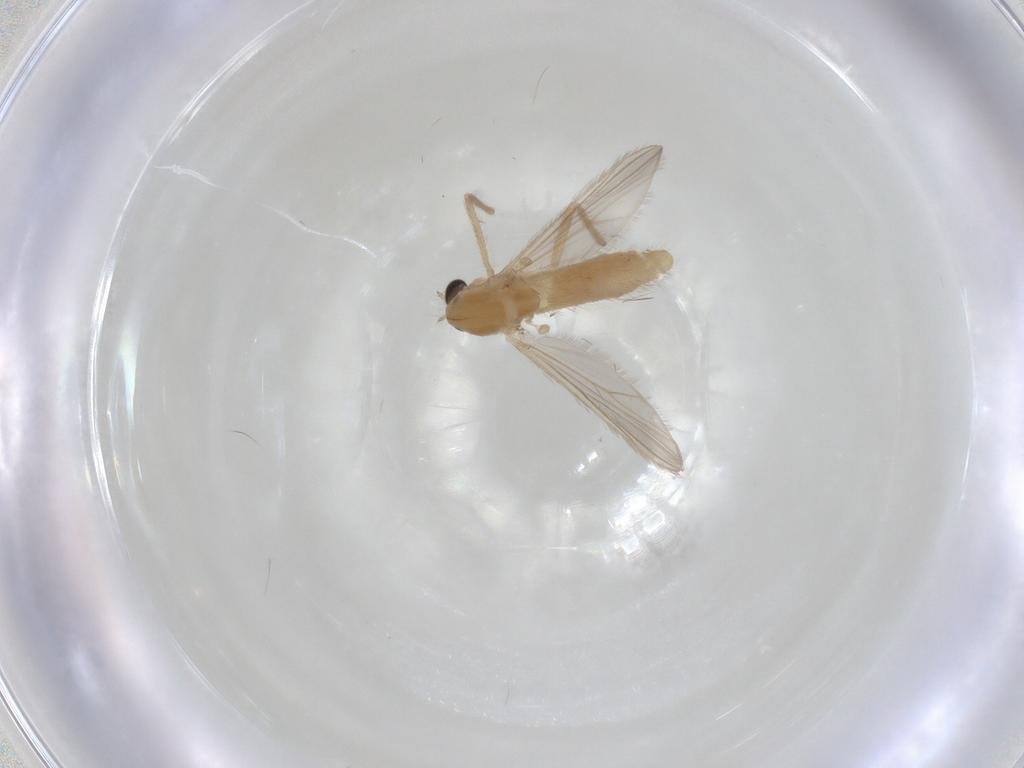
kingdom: Animalia
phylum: Arthropoda
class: Insecta
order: Diptera
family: Chironomidae
